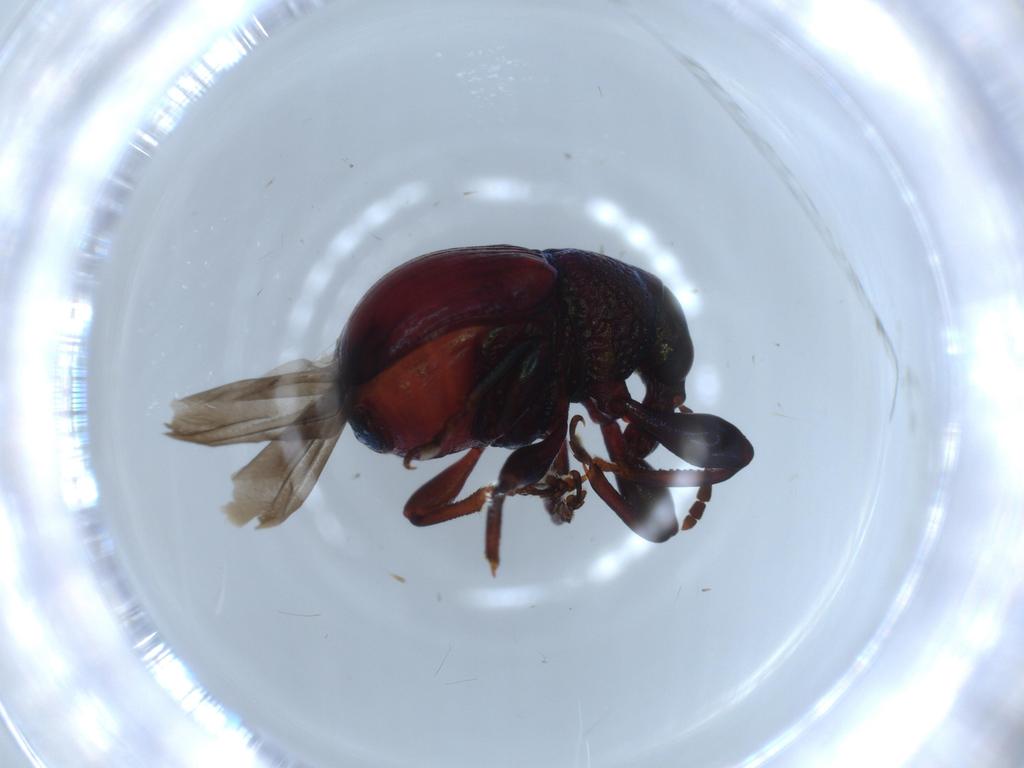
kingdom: Animalia
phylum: Arthropoda
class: Insecta
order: Coleoptera
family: Attelabidae
